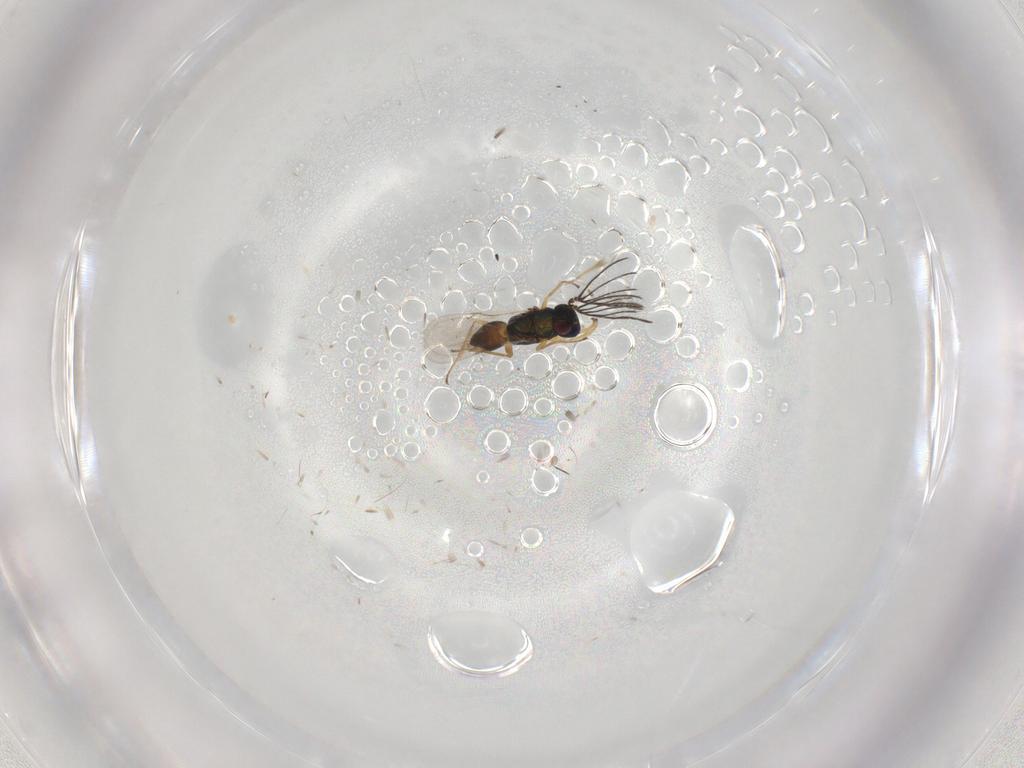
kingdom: Animalia
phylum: Arthropoda
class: Insecta
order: Hymenoptera
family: Encyrtidae
